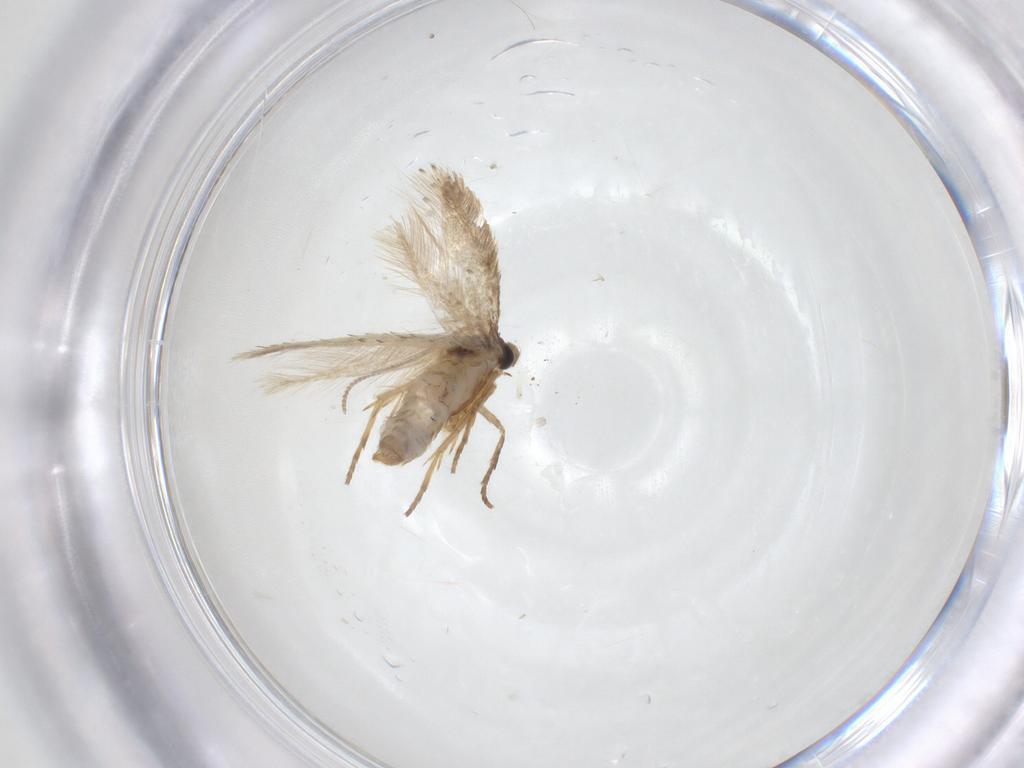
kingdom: Animalia
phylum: Arthropoda
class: Insecta
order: Lepidoptera
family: Nepticulidae
